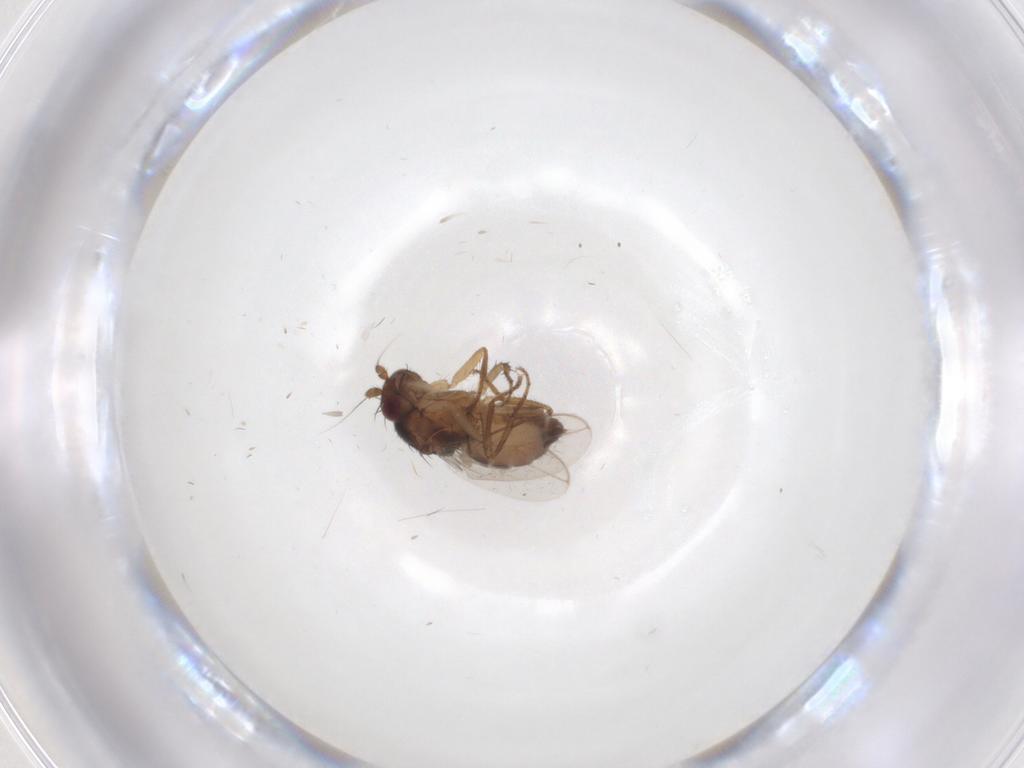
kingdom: Animalia
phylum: Arthropoda
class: Insecta
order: Diptera
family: Sphaeroceridae
